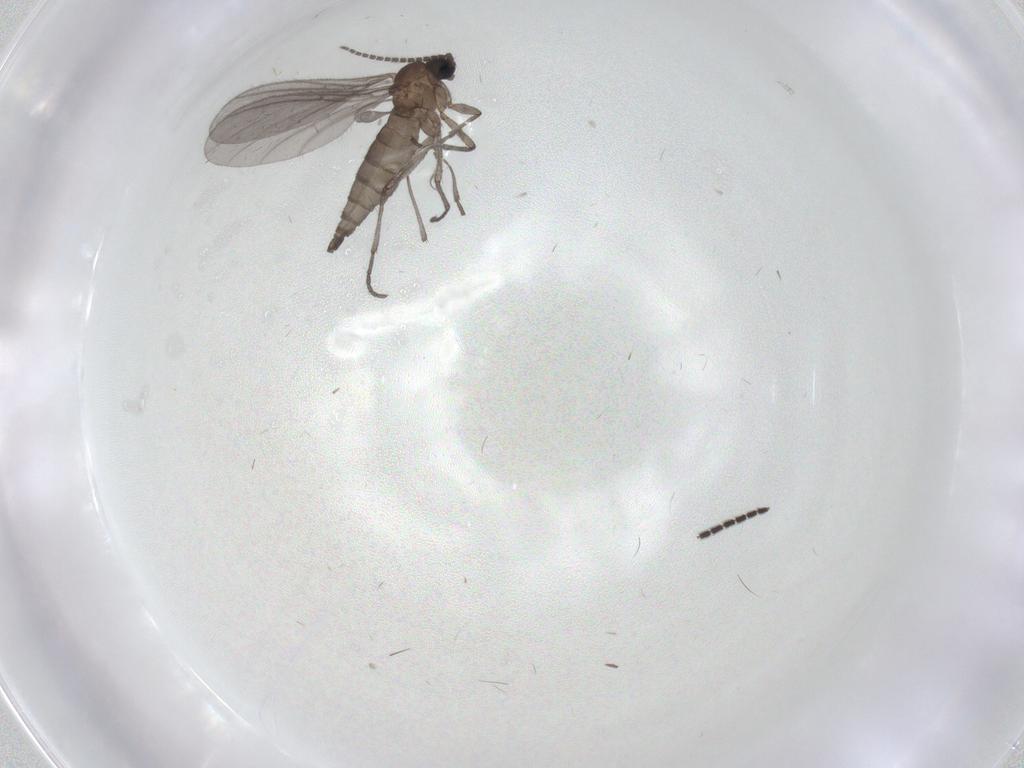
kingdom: Animalia
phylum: Arthropoda
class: Insecta
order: Diptera
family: Sciaridae
